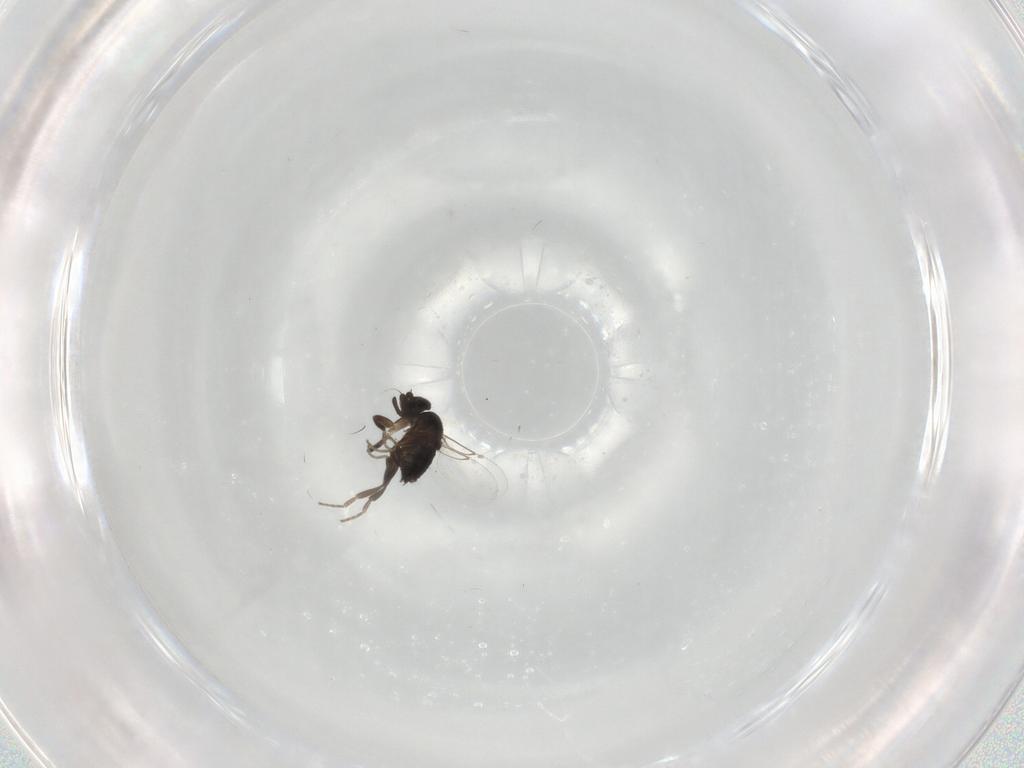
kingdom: Animalia
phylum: Arthropoda
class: Insecta
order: Diptera
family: Phoridae
